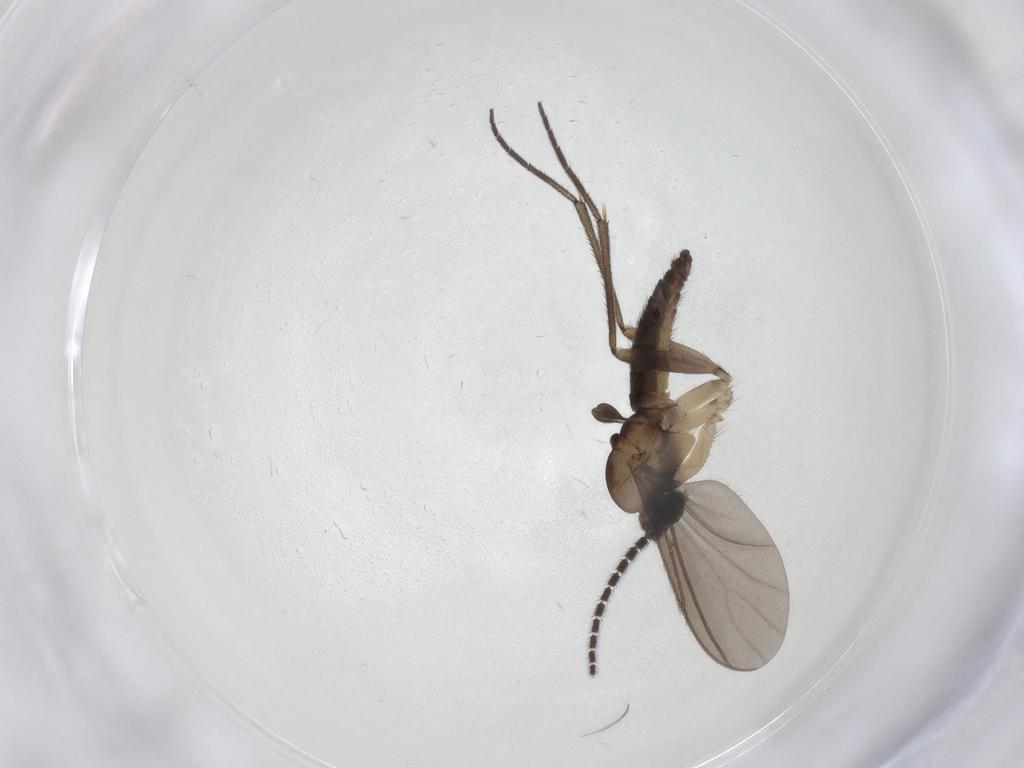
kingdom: Animalia
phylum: Arthropoda
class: Insecta
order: Diptera
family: Sciaridae
